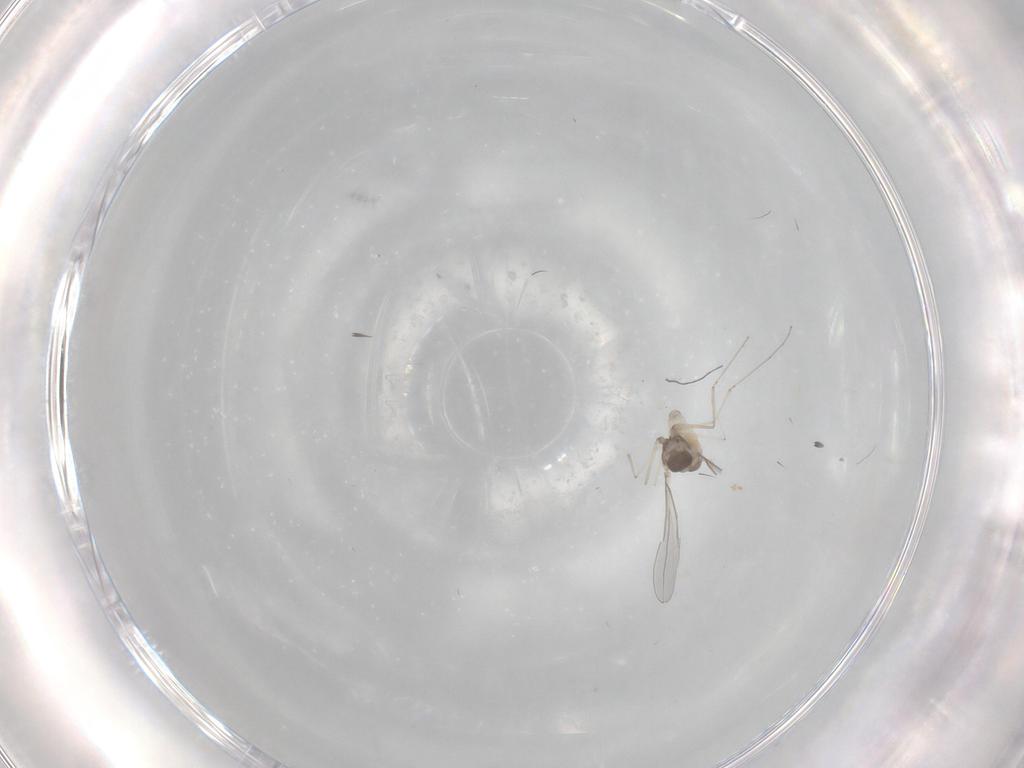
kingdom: Animalia
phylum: Arthropoda
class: Insecta
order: Diptera
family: Cecidomyiidae
